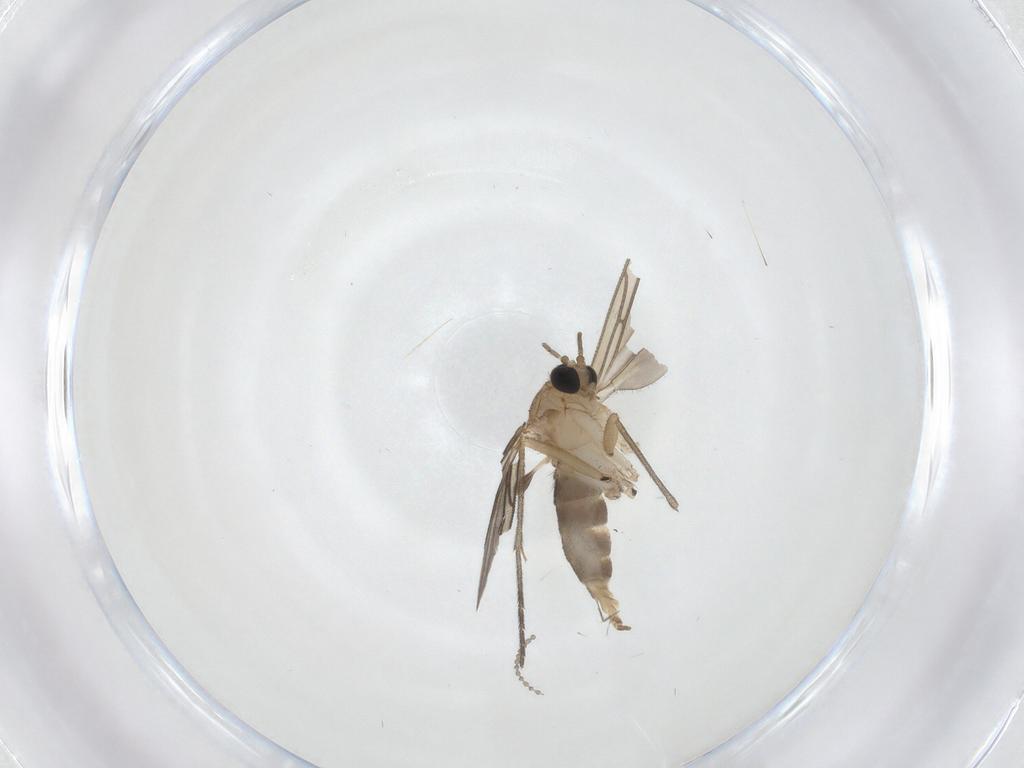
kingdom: Animalia
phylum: Arthropoda
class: Insecta
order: Diptera
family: Sciaridae
